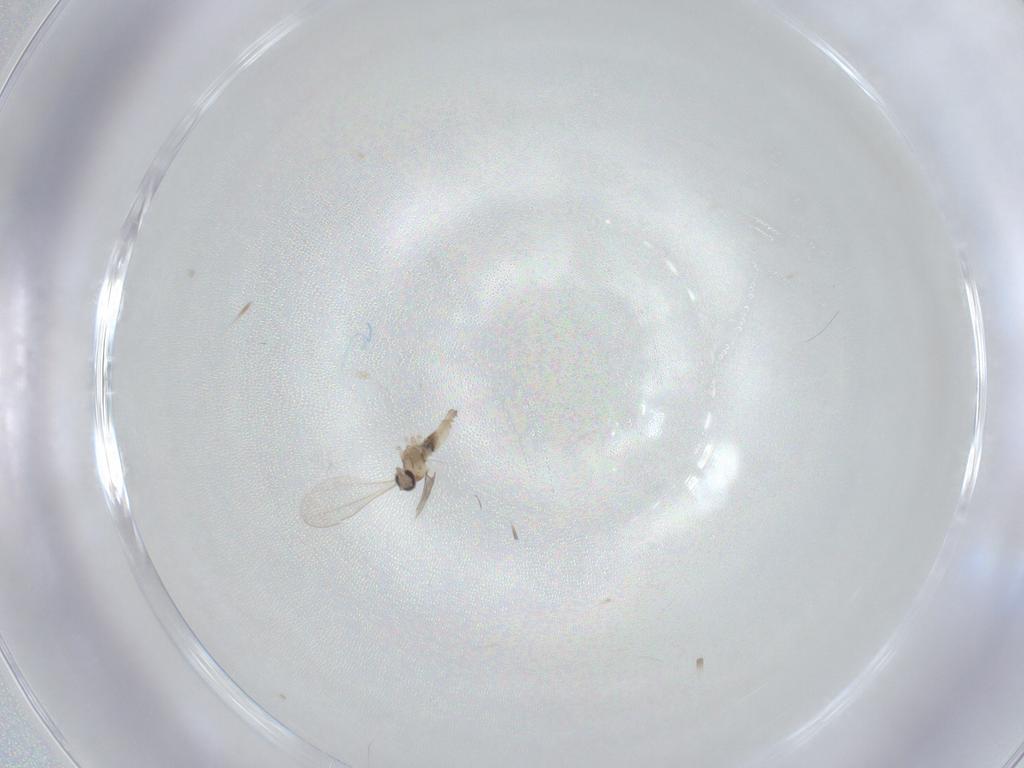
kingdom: Animalia
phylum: Arthropoda
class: Insecta
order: Diptera
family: Cecidomyiidae
